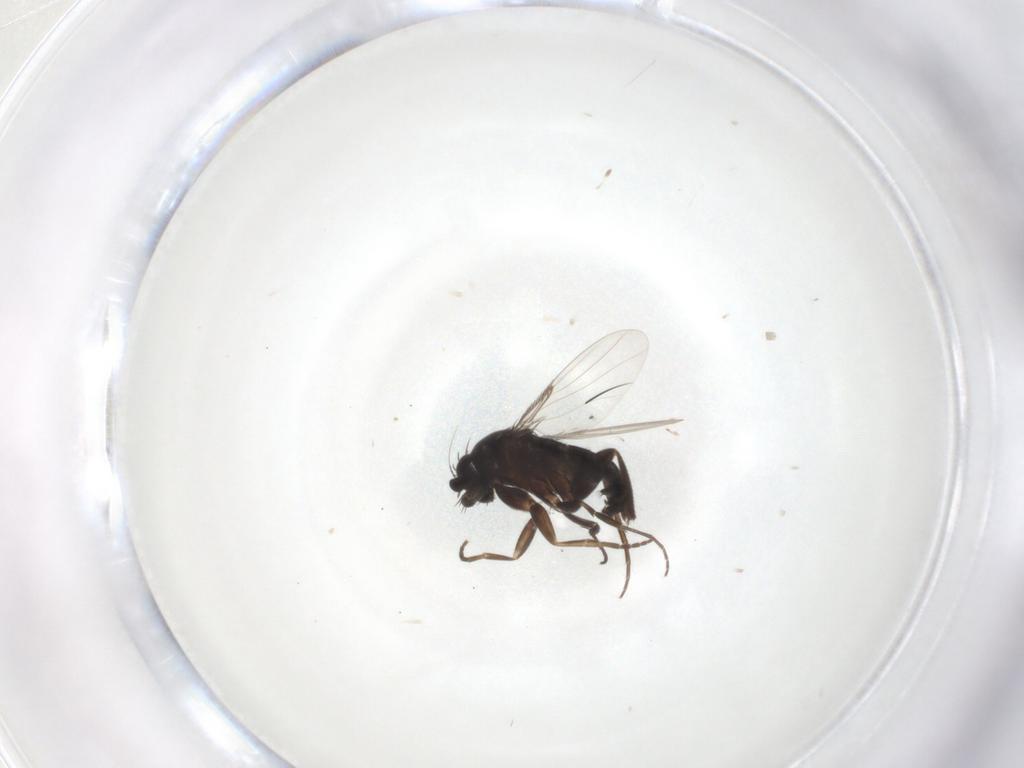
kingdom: Animalia
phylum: Arthropoda
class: Insecta
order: Diptera
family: Phoridae
